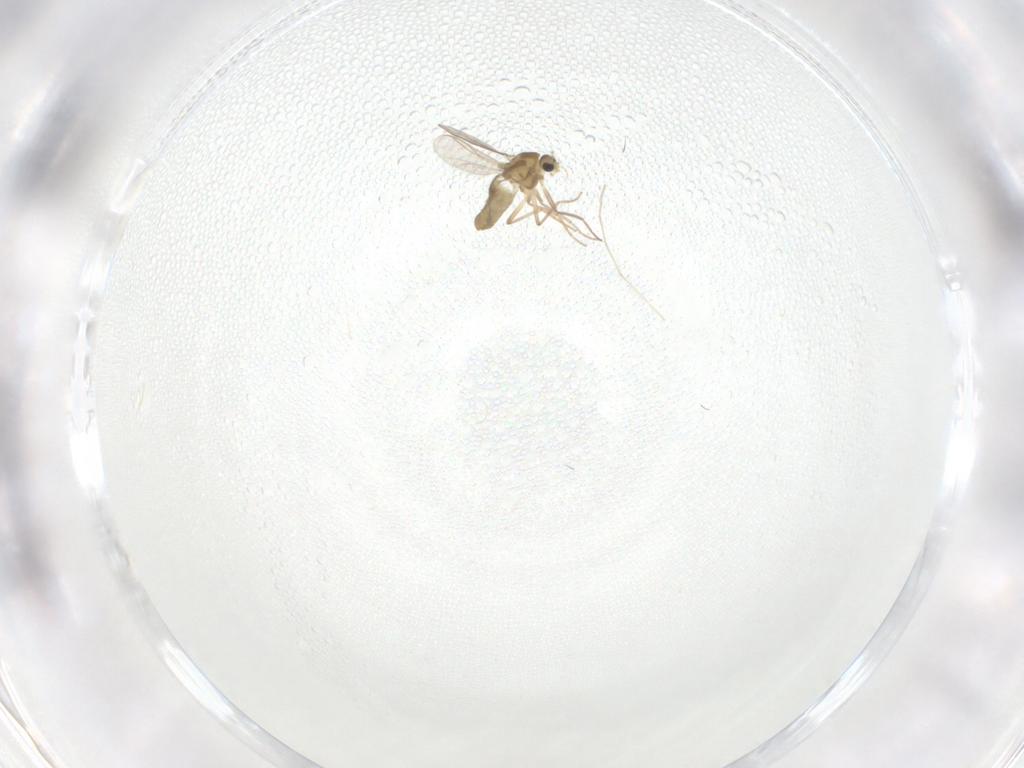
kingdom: Animalia
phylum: Arthropoda
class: Insecta
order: Diptera
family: Chironomidae
